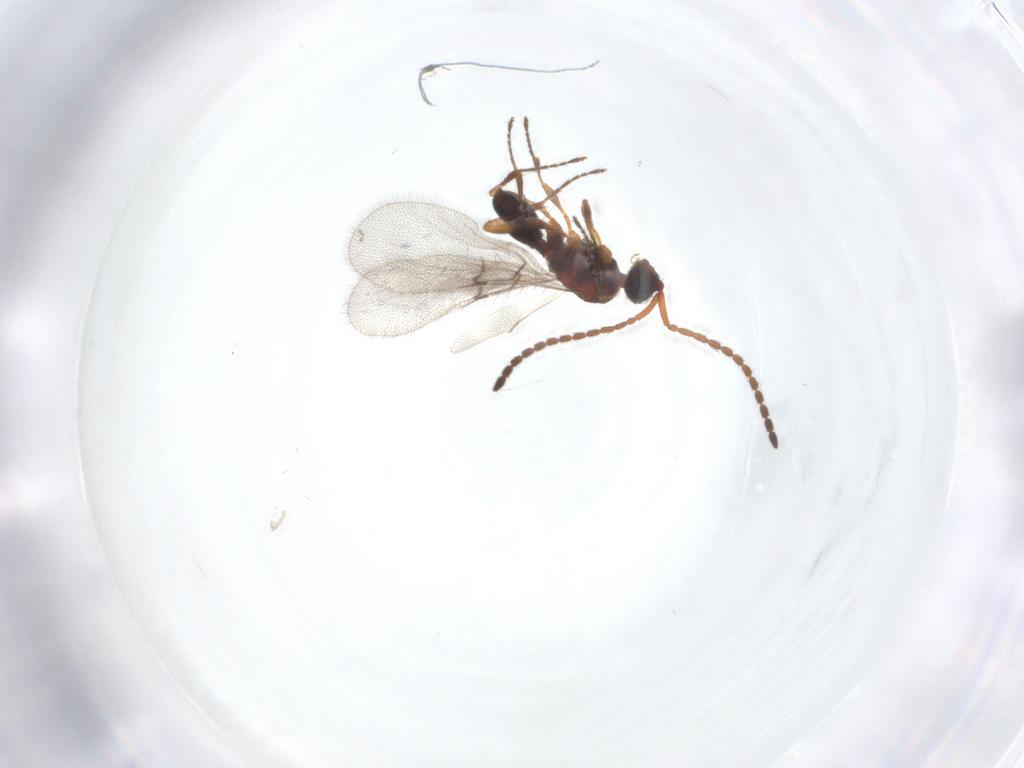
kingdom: Animalia
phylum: Arthropoda
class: Insecta
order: Hymenoptera
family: Diapriidae
